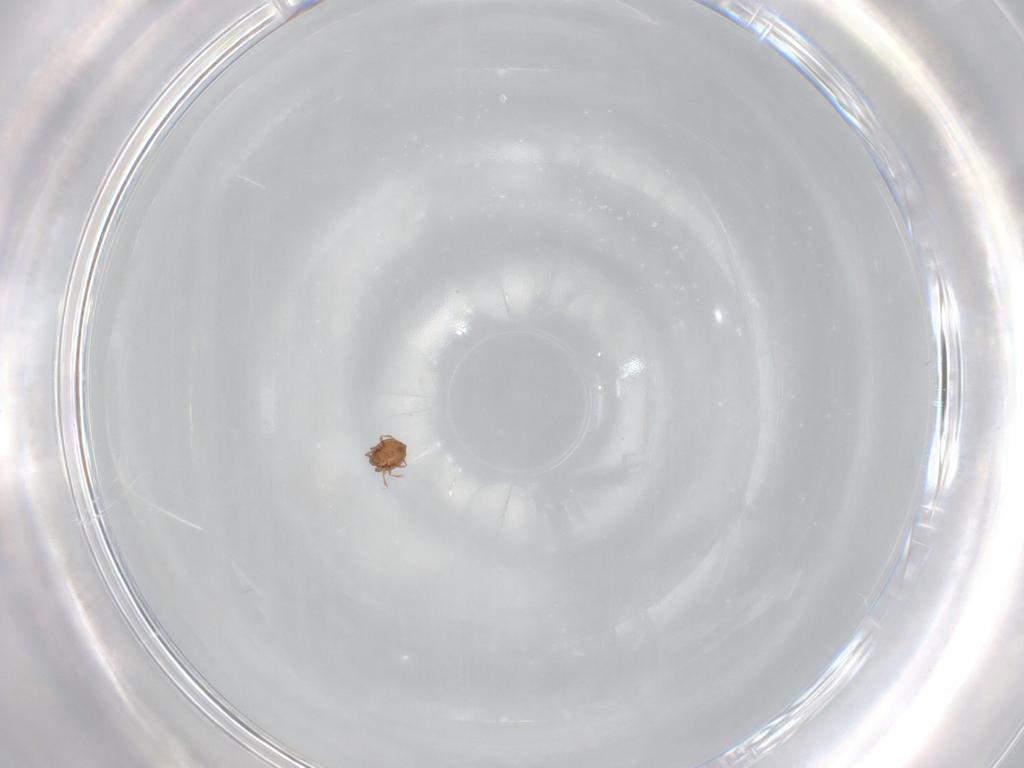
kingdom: Animalia
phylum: Arthropoda
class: Arachnida
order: Sarcoptiformes
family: Scheloribatidae
